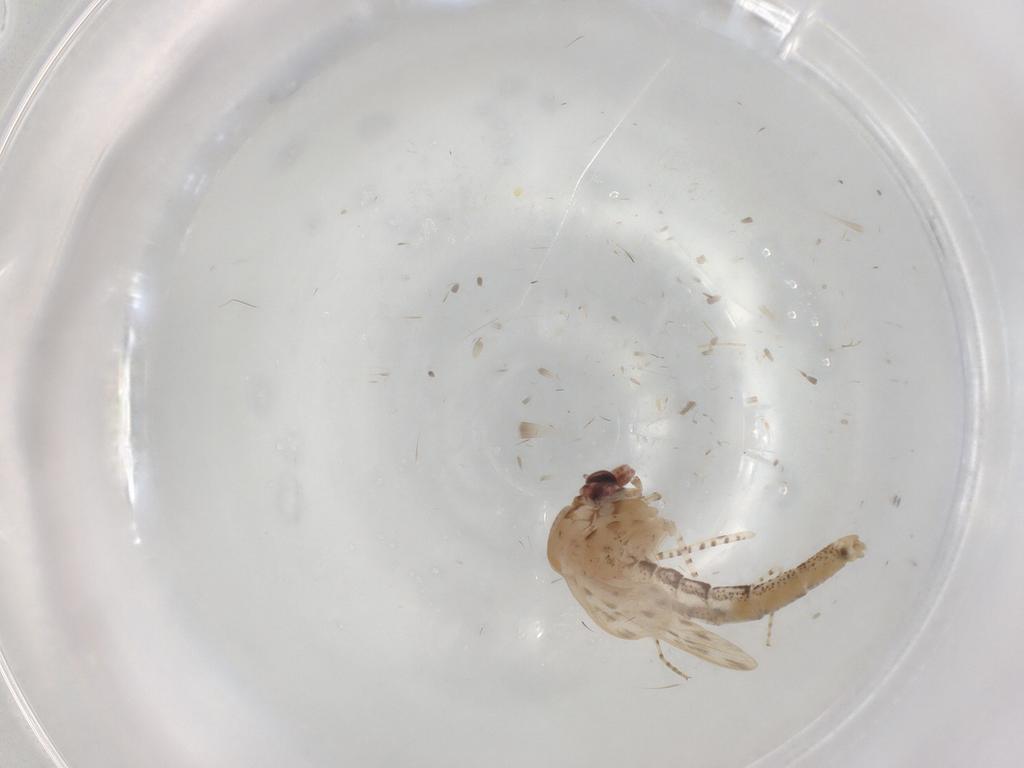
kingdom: Animalia
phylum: Arthropoda
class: Insecta
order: Diptera
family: Chaoboridae
